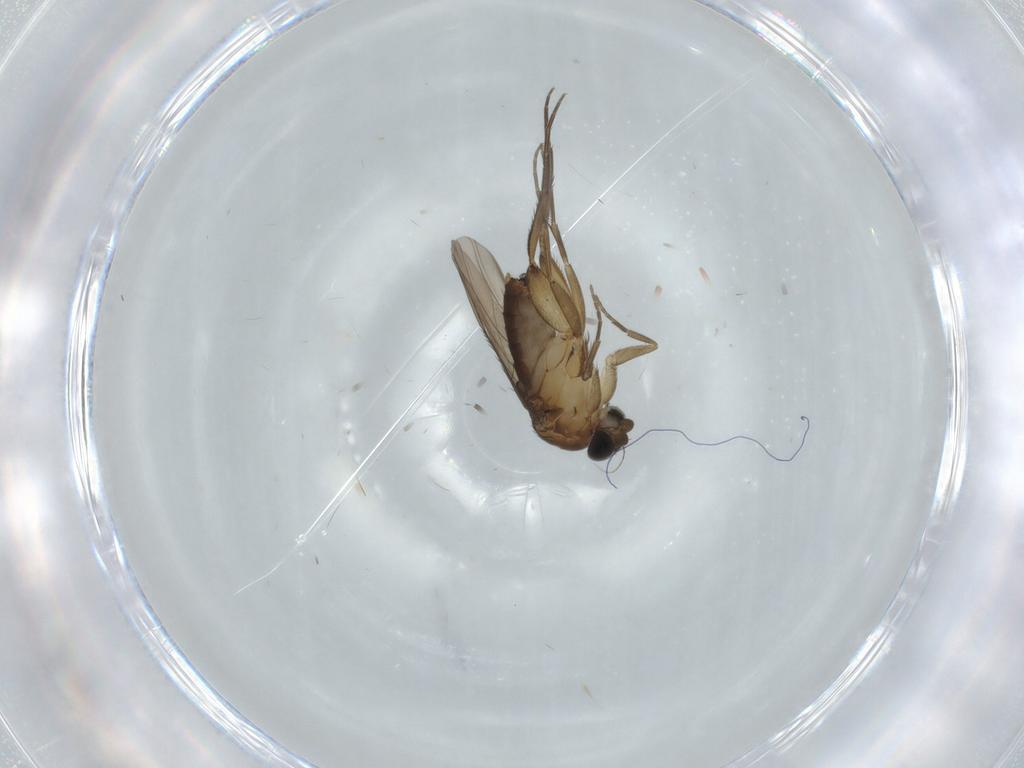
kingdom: Animalia
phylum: Arthropoda
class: Insecta
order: Diptera
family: Phoridae
